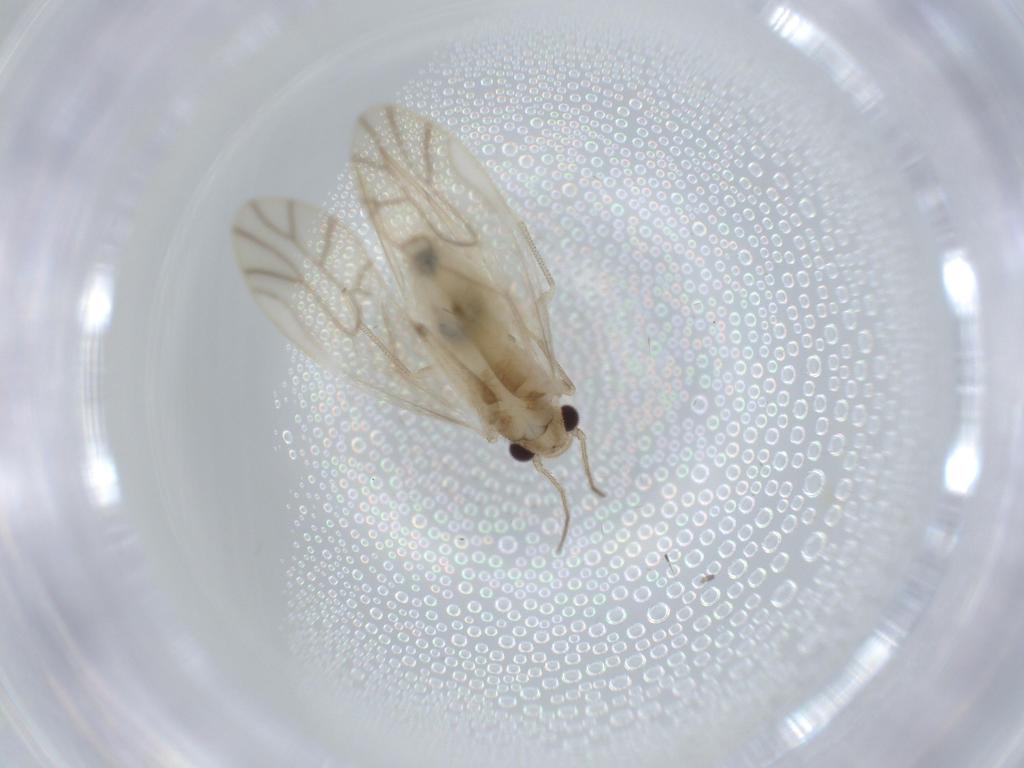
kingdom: Animalia
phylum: Arthropoda
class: Insecta
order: Psocodea
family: Caeciliusidae
